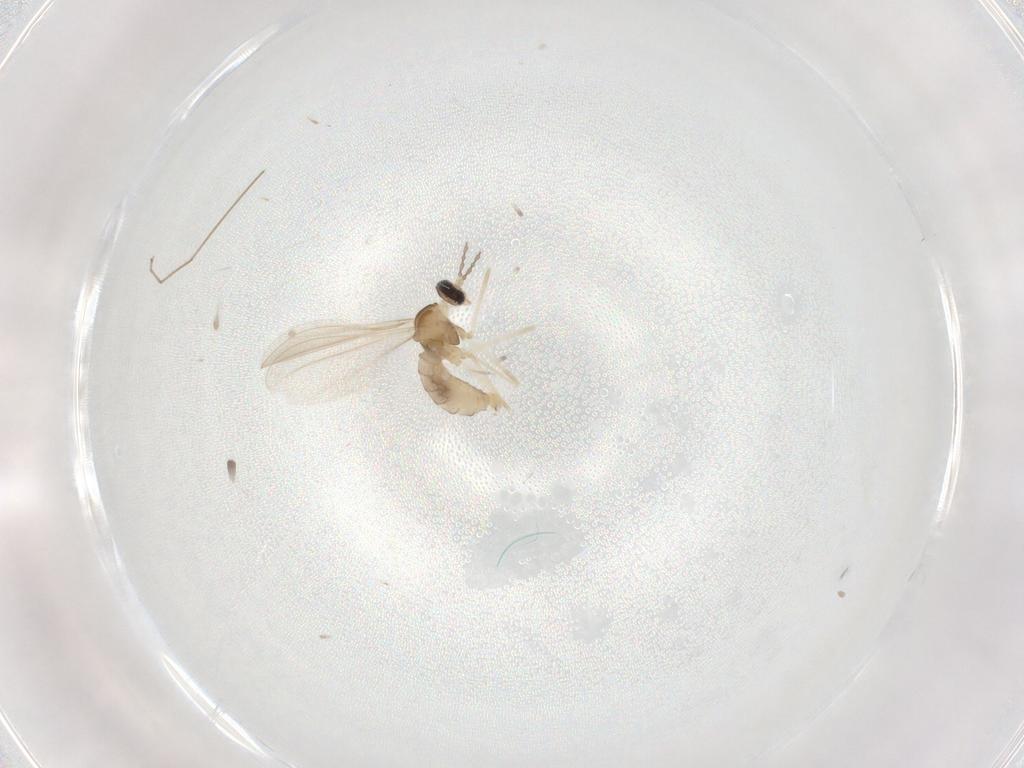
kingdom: Animalia
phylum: Arthropoda
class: Insecta
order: Diptera
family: Cecidomyiidae
